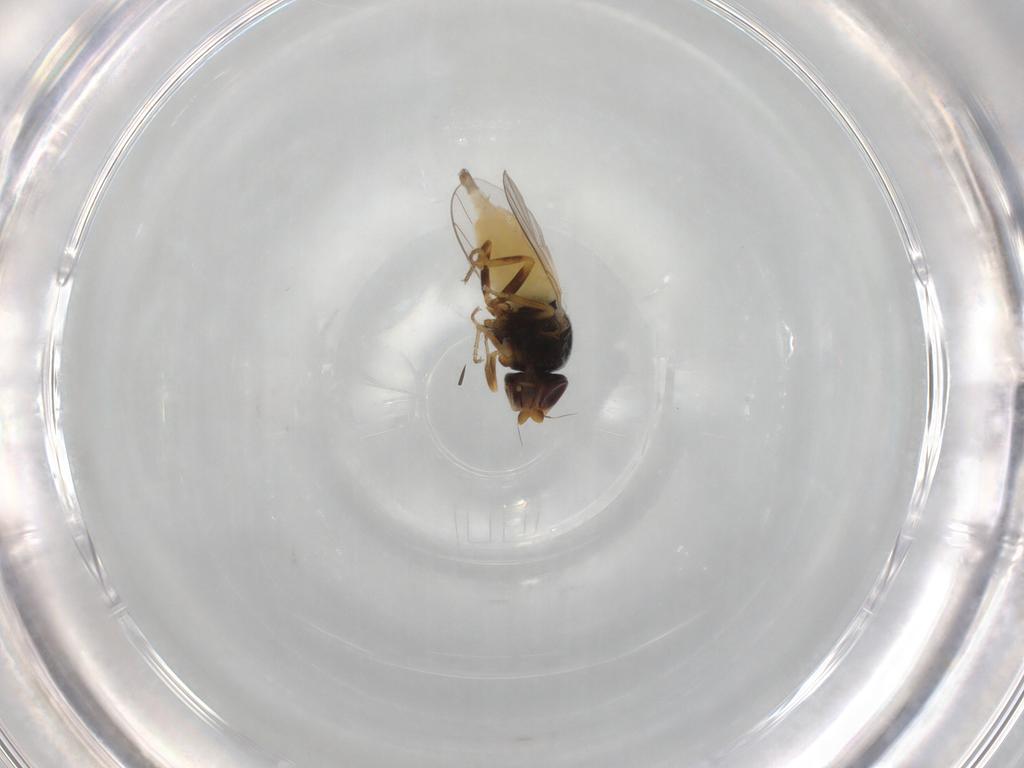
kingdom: Animalia
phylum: Arthropoda
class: Insecta
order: Diptera
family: Chloropidae
